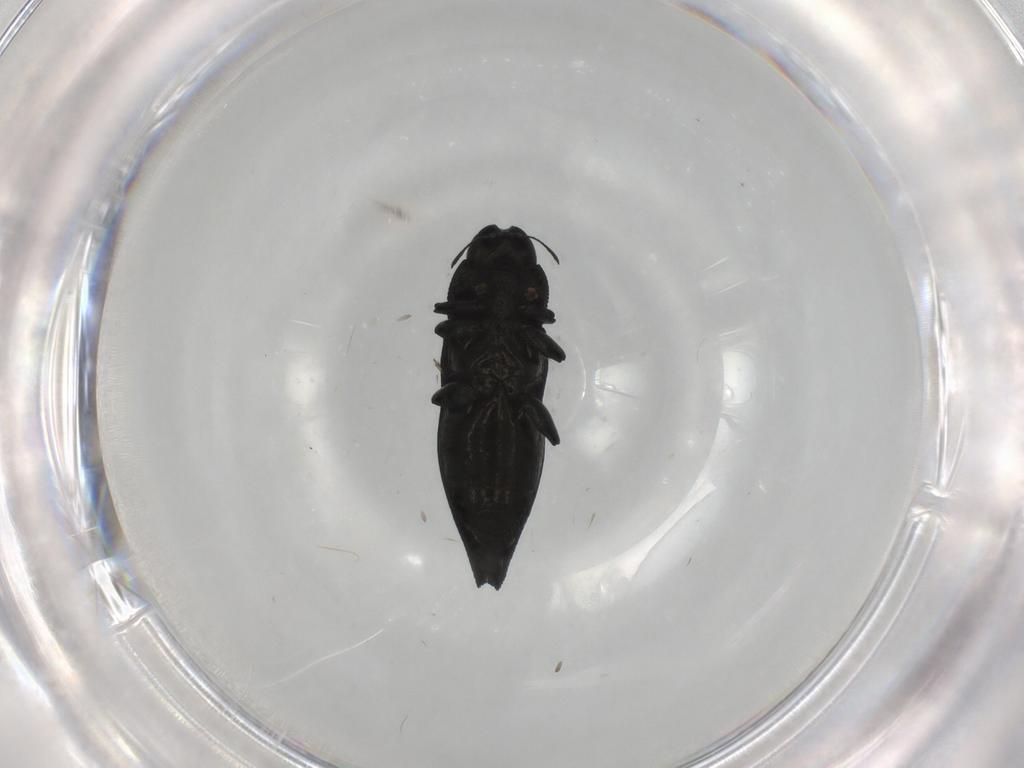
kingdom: Animalia
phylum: Arthropoda
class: Insecta
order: Coleoptera
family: Buprestidae
